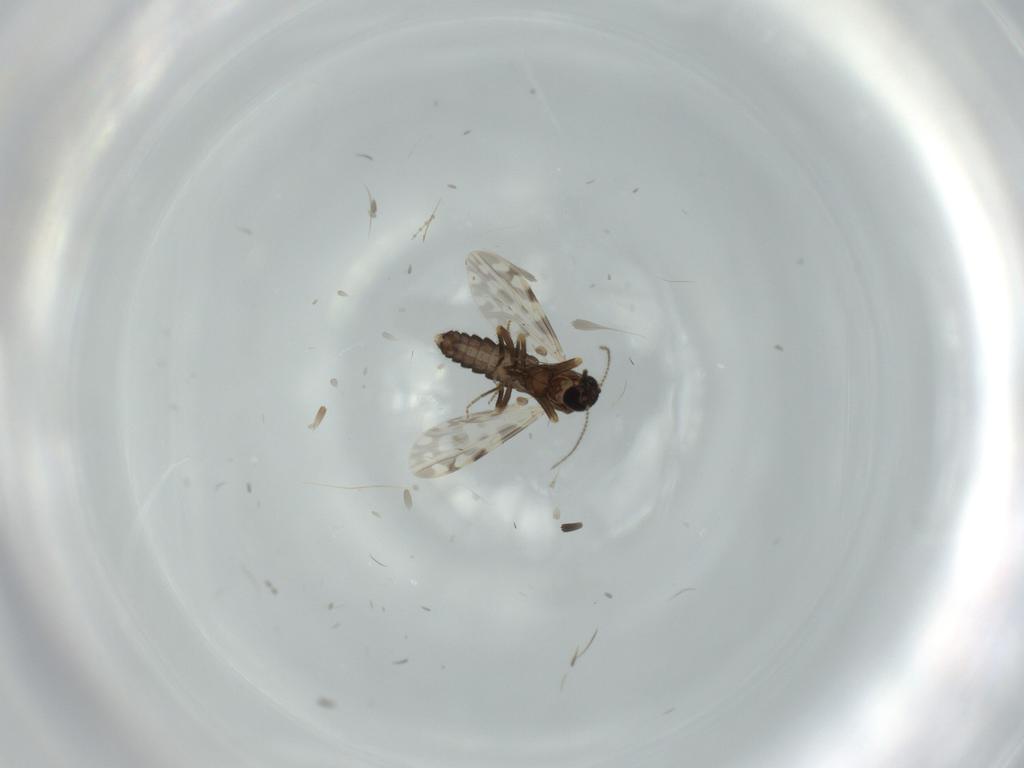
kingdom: Animalia
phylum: Arthropoda
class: Insecta
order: Diptera
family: Ceratopogonidae
